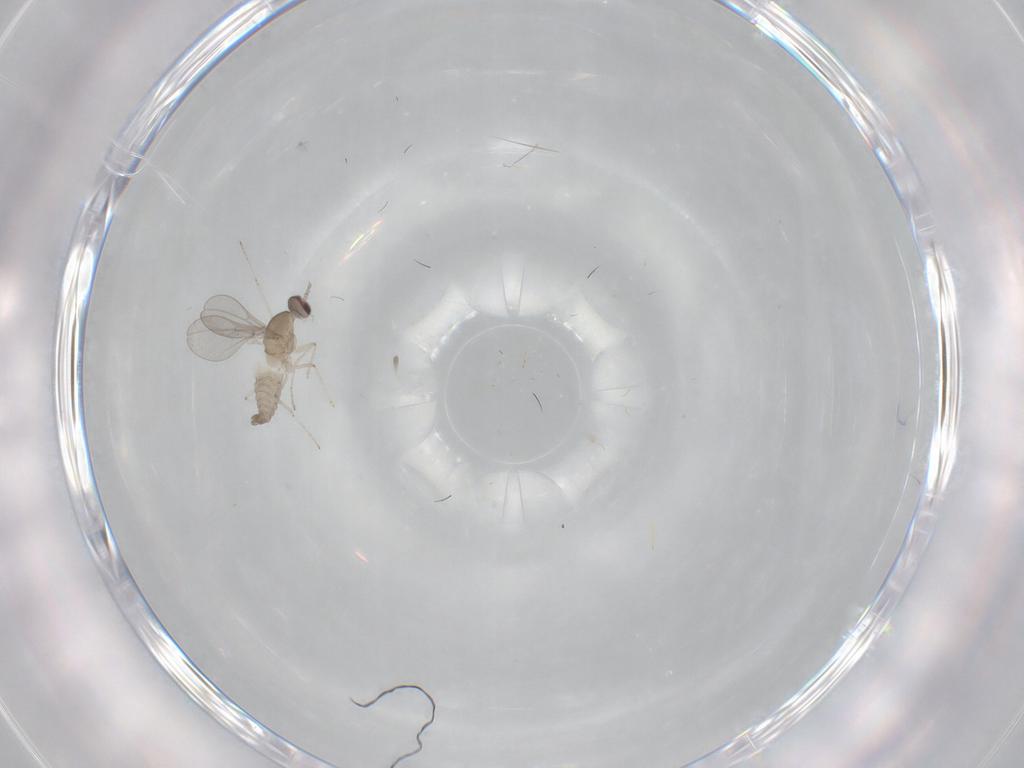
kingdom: Animalia
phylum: Arthropoda
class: Insecta
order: Diptera
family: Cecidomyiidae
